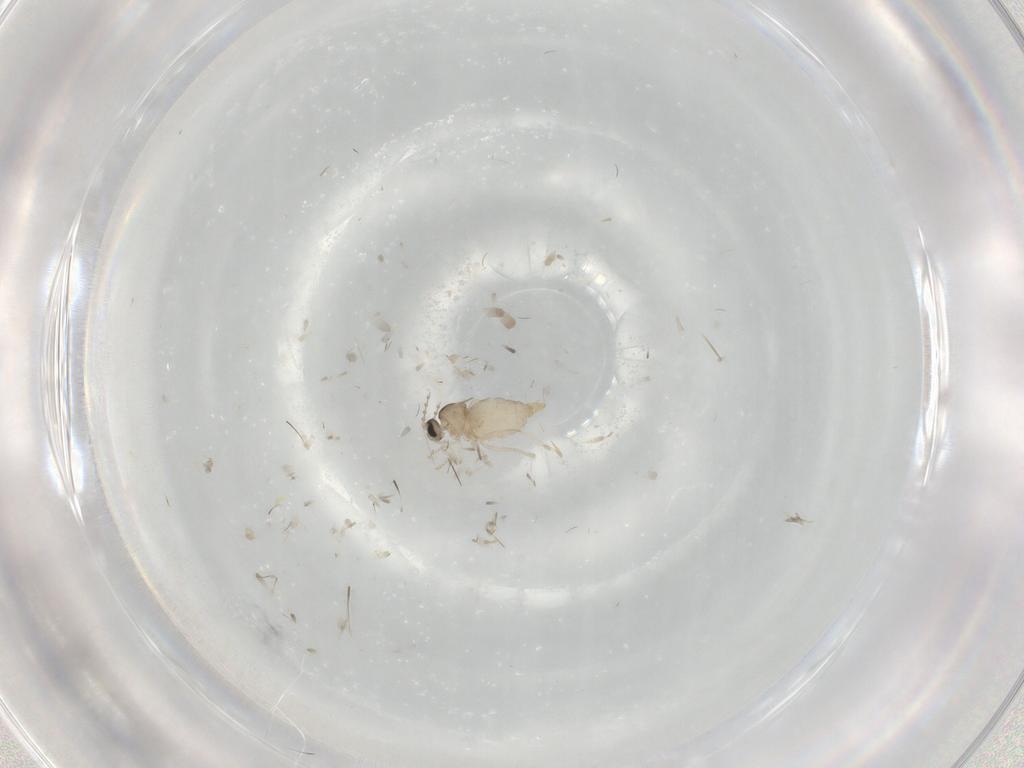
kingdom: Animalia
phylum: Arthropoda
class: Insecta
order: Diptera
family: Cecidomyiidae
